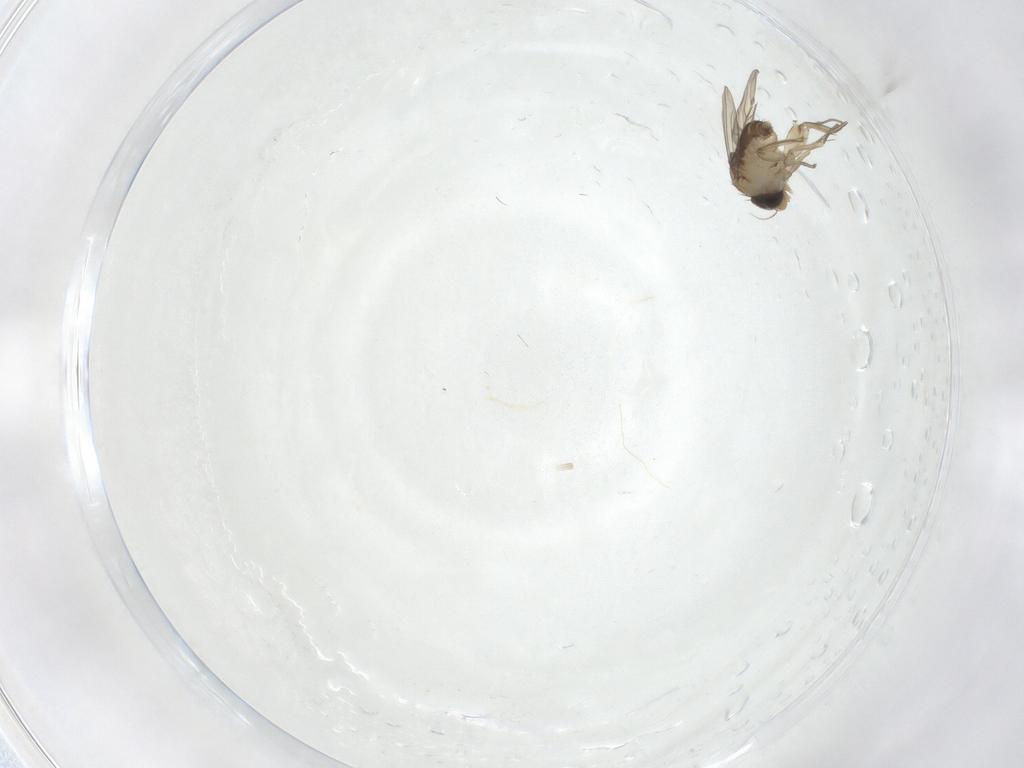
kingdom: Animalia
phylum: Arthropoda
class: Insecta
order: Diptera
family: Phoridae
